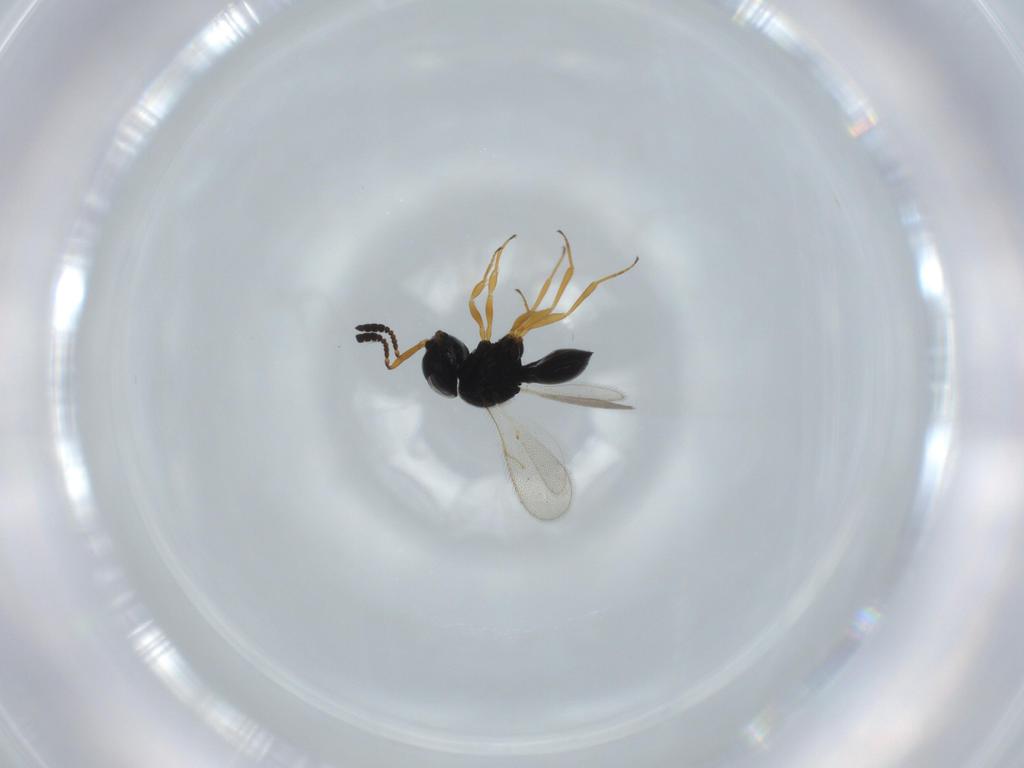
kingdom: Animalia
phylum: Arthropoda
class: Insecta
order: Hymenoptera
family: Scelionidae
